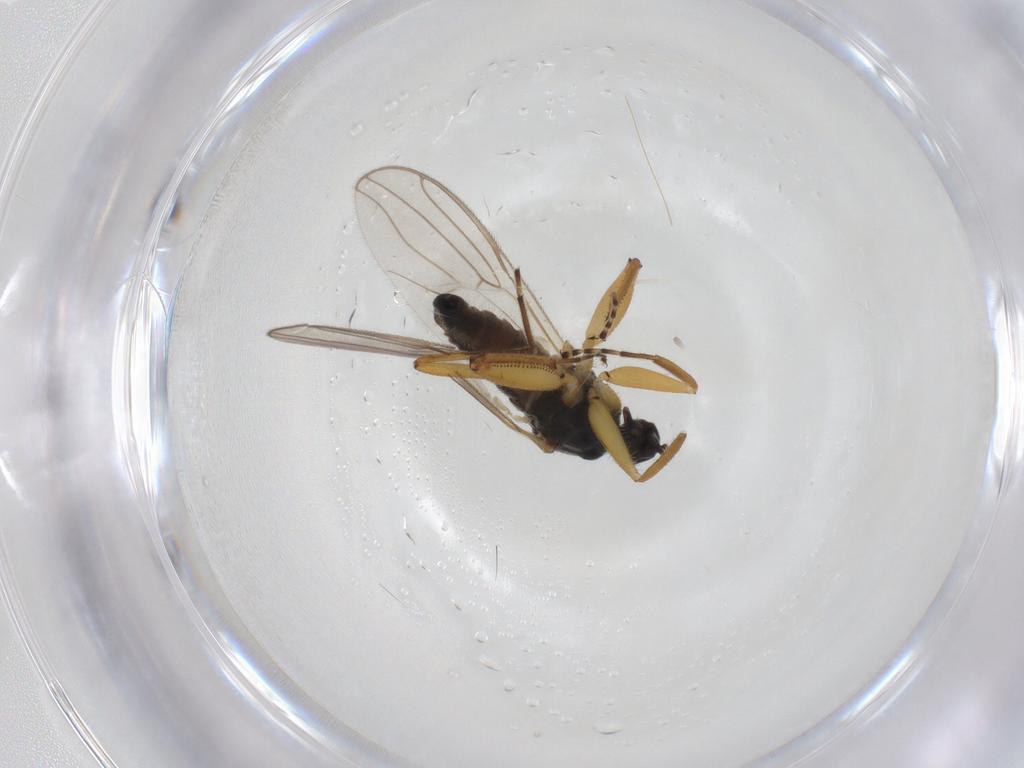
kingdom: Animalia
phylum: Arthropoda
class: Insecta
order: Diptera
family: Hybotidae
